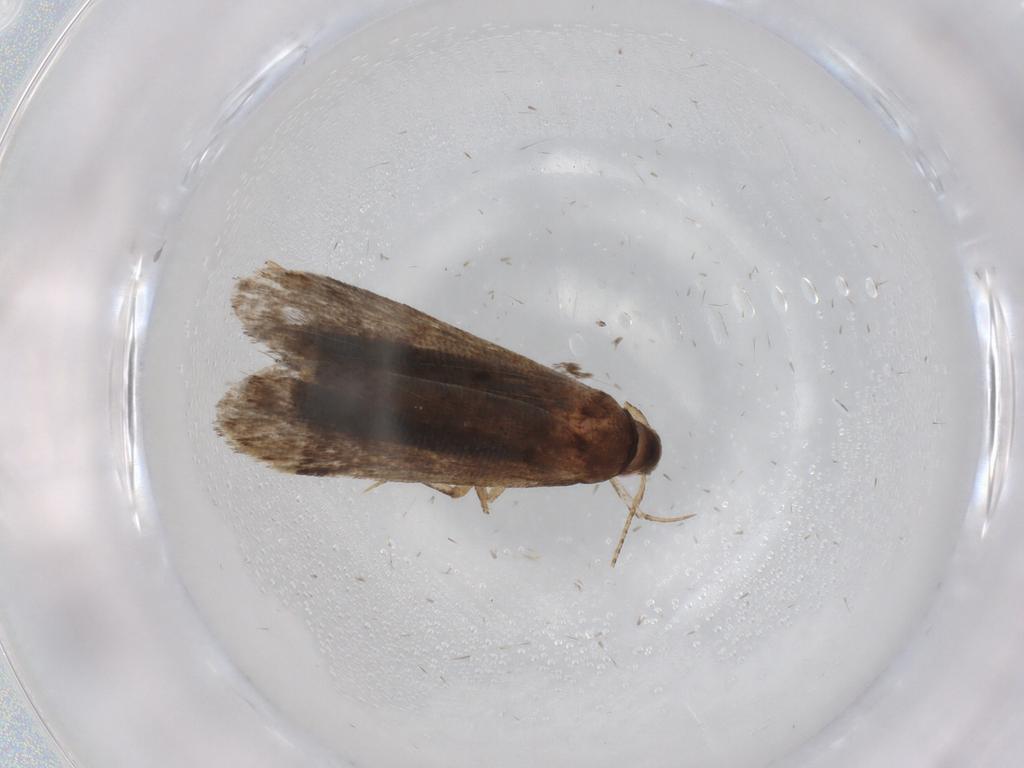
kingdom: Animalia
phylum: Arthropoda
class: Insecta
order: Lepidoptera
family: Gelechiidae
